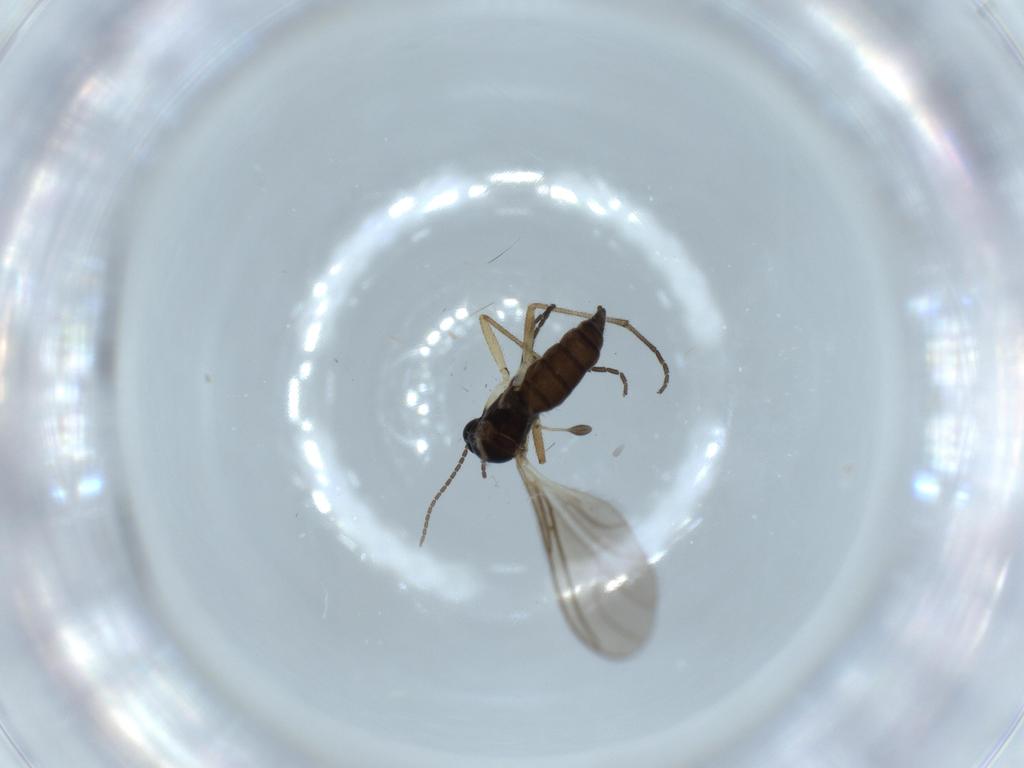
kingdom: Animalia
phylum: Arthropoda
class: Insecta
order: Diptera
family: Sciaridae
